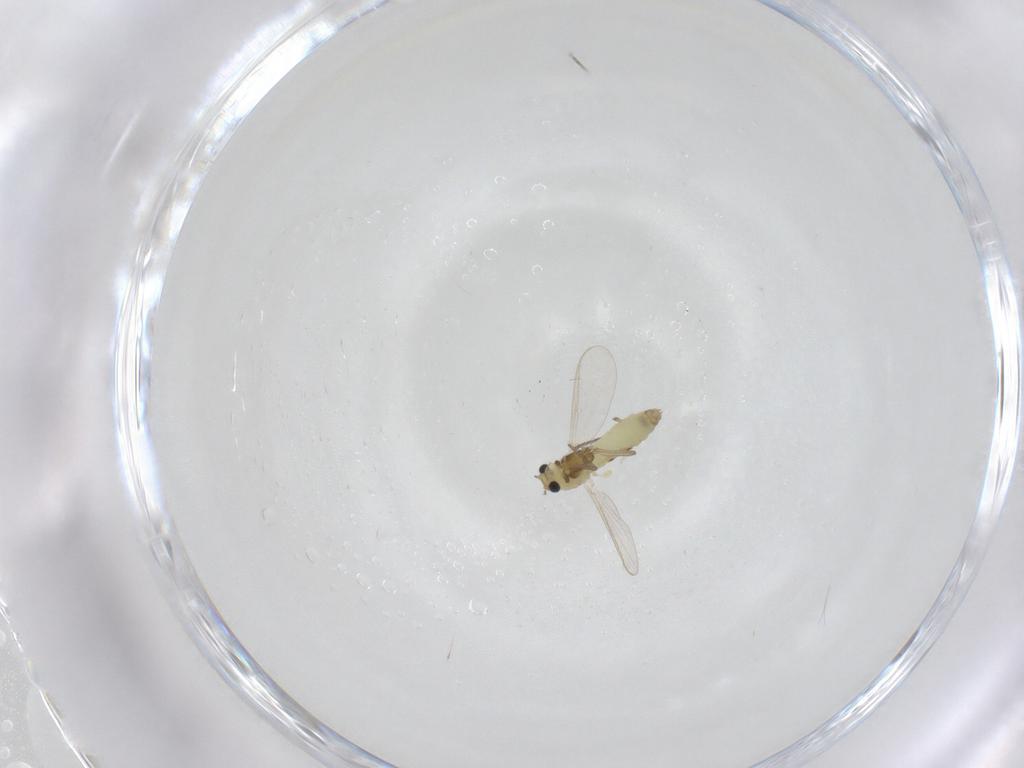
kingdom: Animalia
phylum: Arthropoda
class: Insecta
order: Diptera
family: Chironomidae
